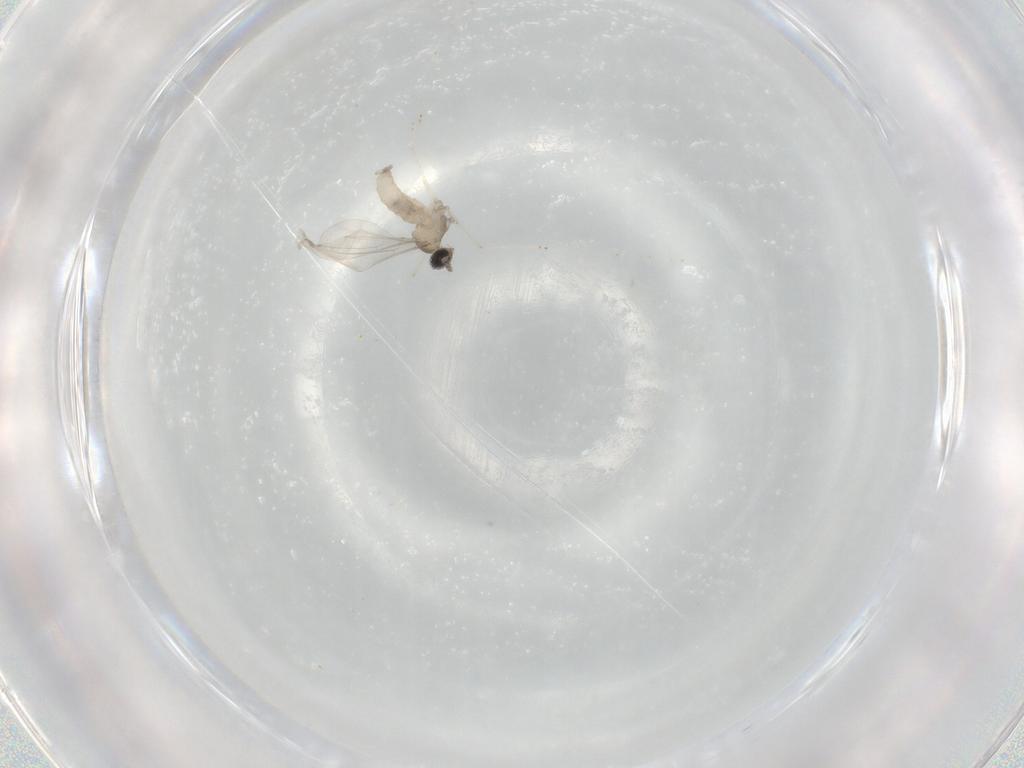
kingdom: Animalia
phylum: Arthropoda
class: Insecta
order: Diptera
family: Cecidomyiidae
